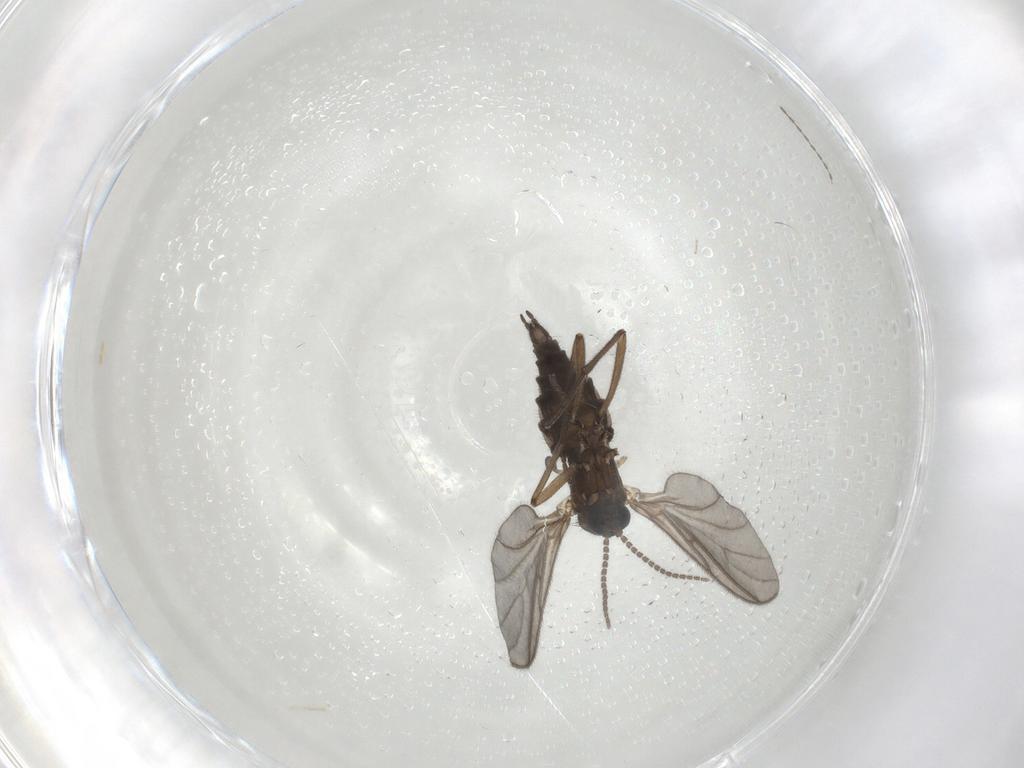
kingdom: Animalia
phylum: Arthropoda
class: Insecta
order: Diptera
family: Sciaridae
